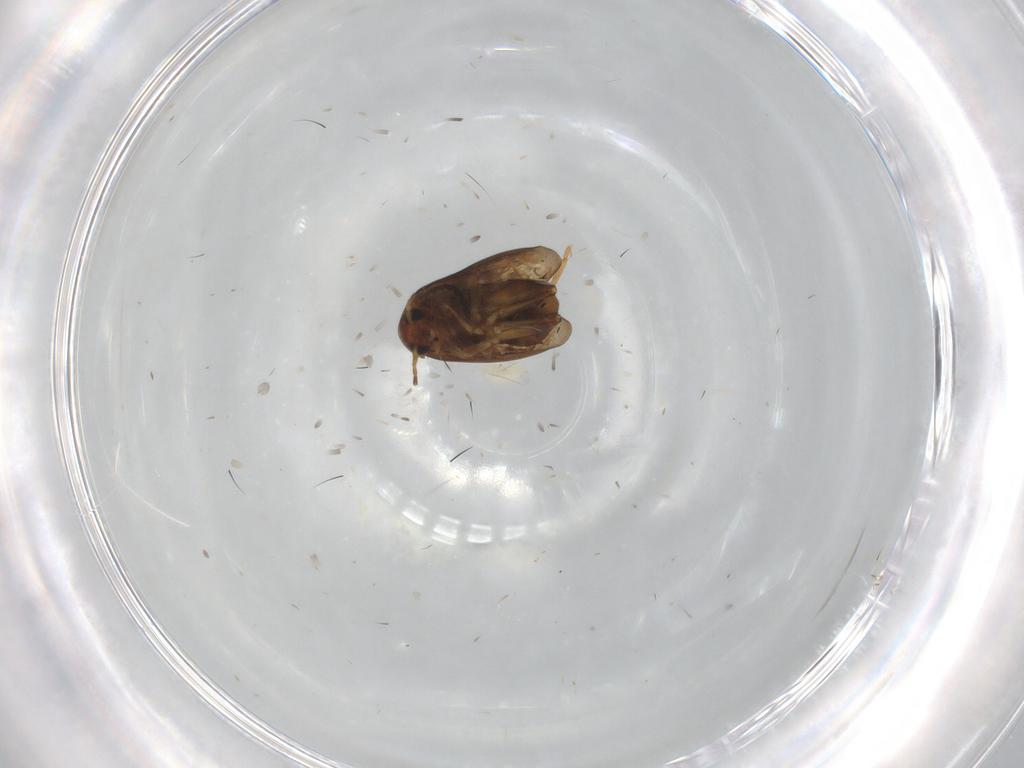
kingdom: Animalia
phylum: Arthropoda
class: Insecta
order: Coleoptera
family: Chrysomelidae
